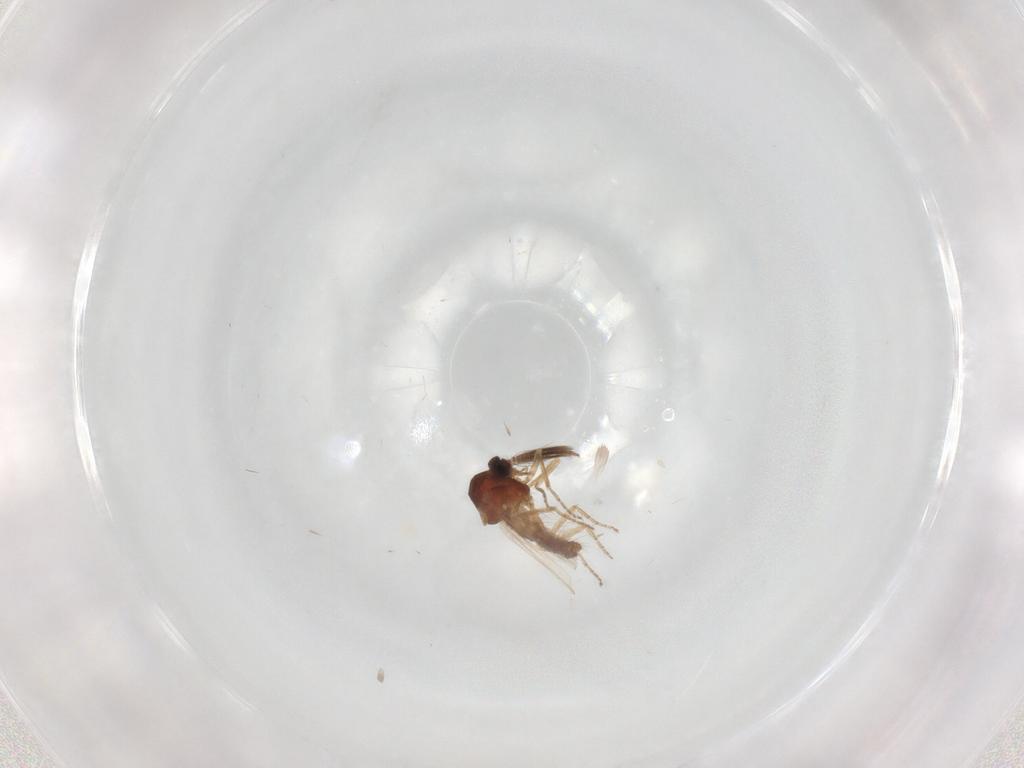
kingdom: Animalia
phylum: Arthropoda
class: Insecta
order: Diptera
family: Ceratopogonidae
